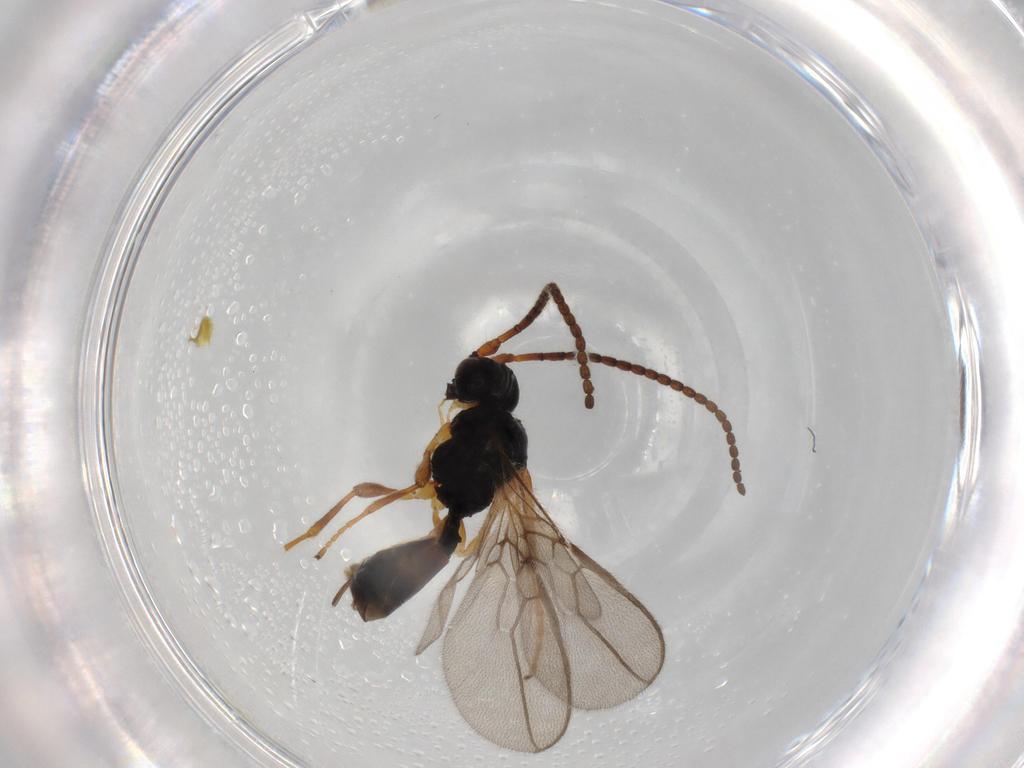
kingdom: Animalia
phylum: Arthropoda
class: Insecta
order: Hymenoptera
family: Braconidae
